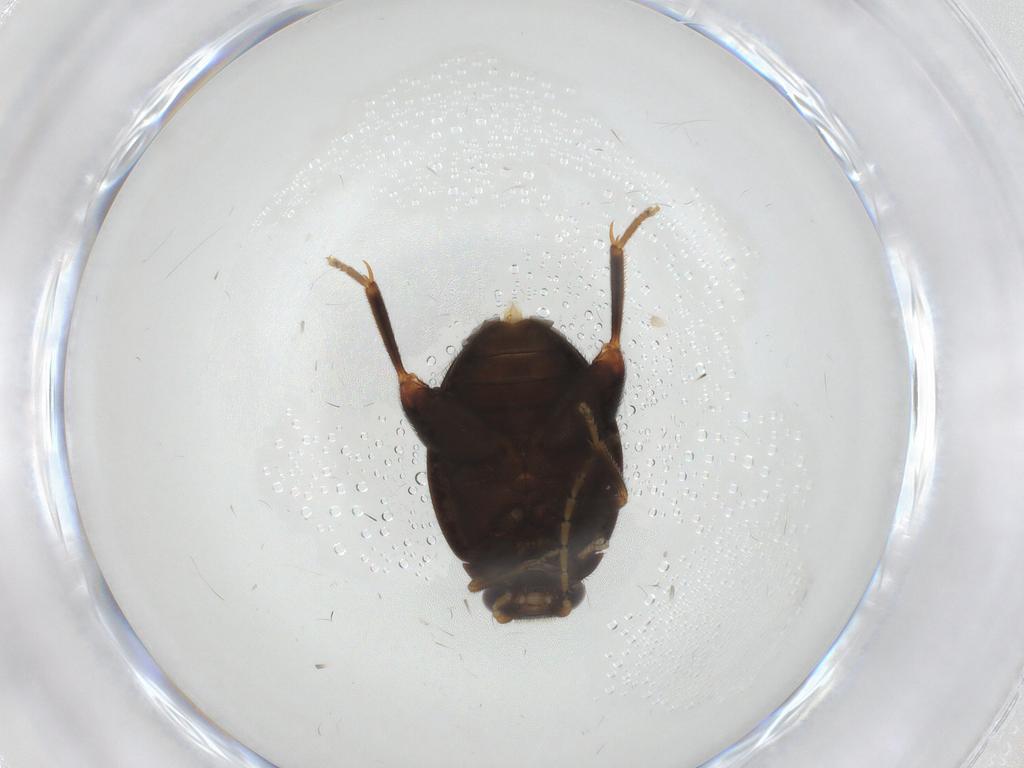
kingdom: Animalia
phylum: Arthropoda
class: Insecta
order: Coleoptera
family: Scirtidae
